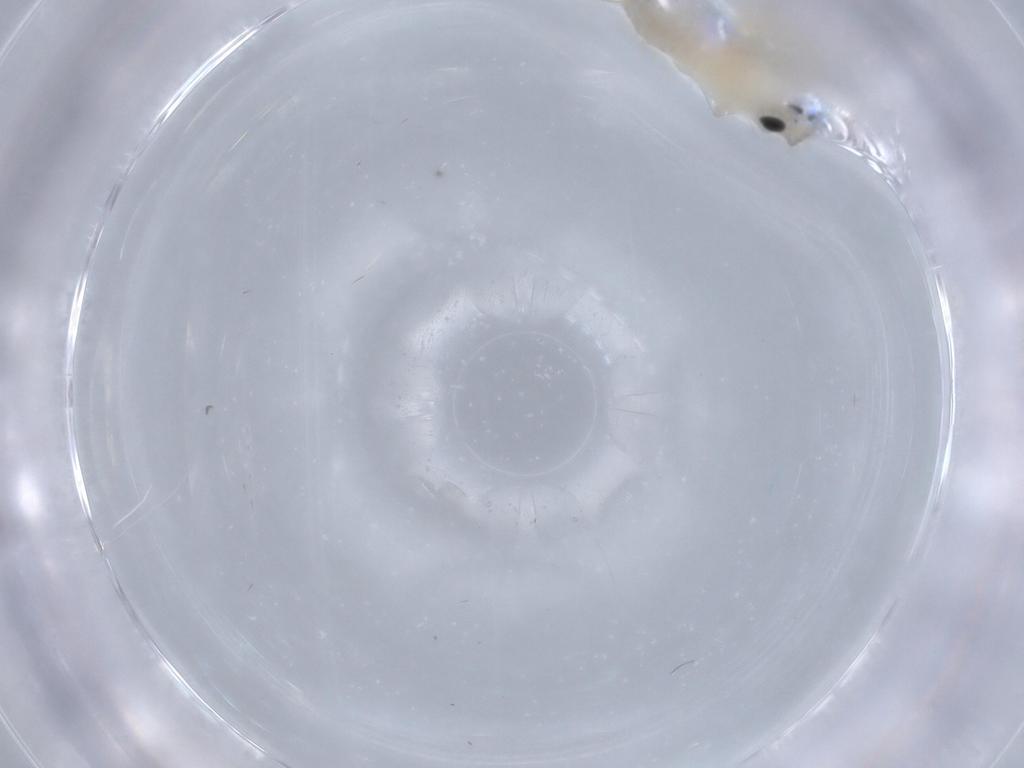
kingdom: Animalia
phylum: Arthropoda
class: Insecta
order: Psocodea
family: Caeciliusidae
